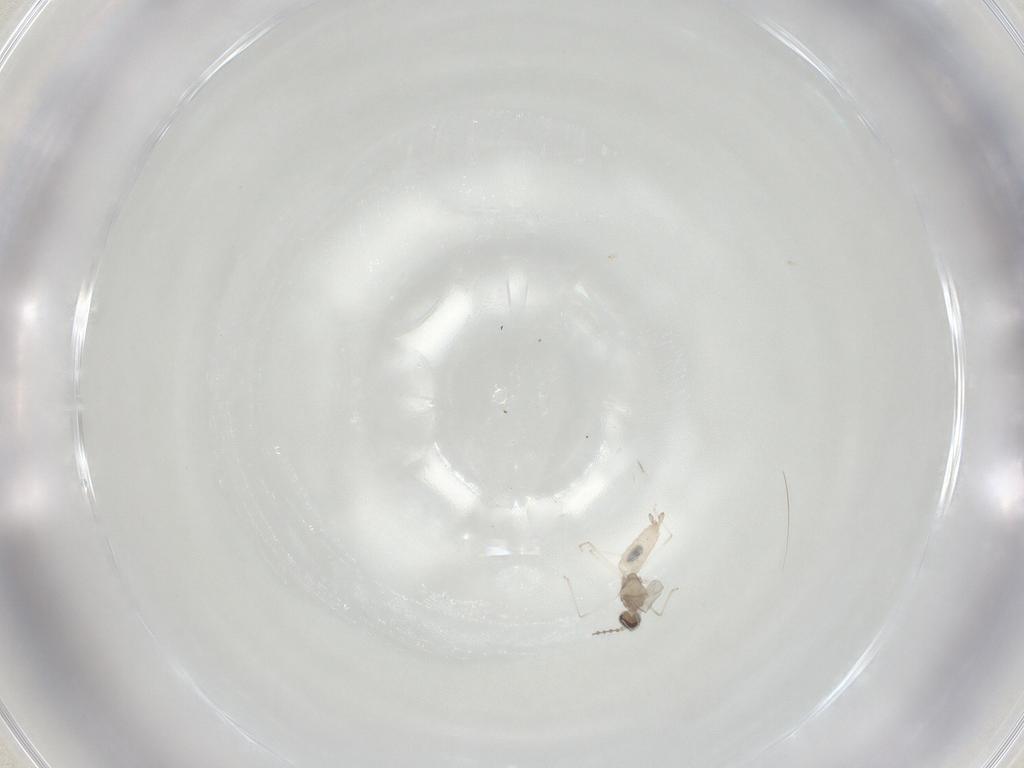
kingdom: Animalia
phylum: Arthropoda
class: Insecta
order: Diptera
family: Cecidomyiidae
